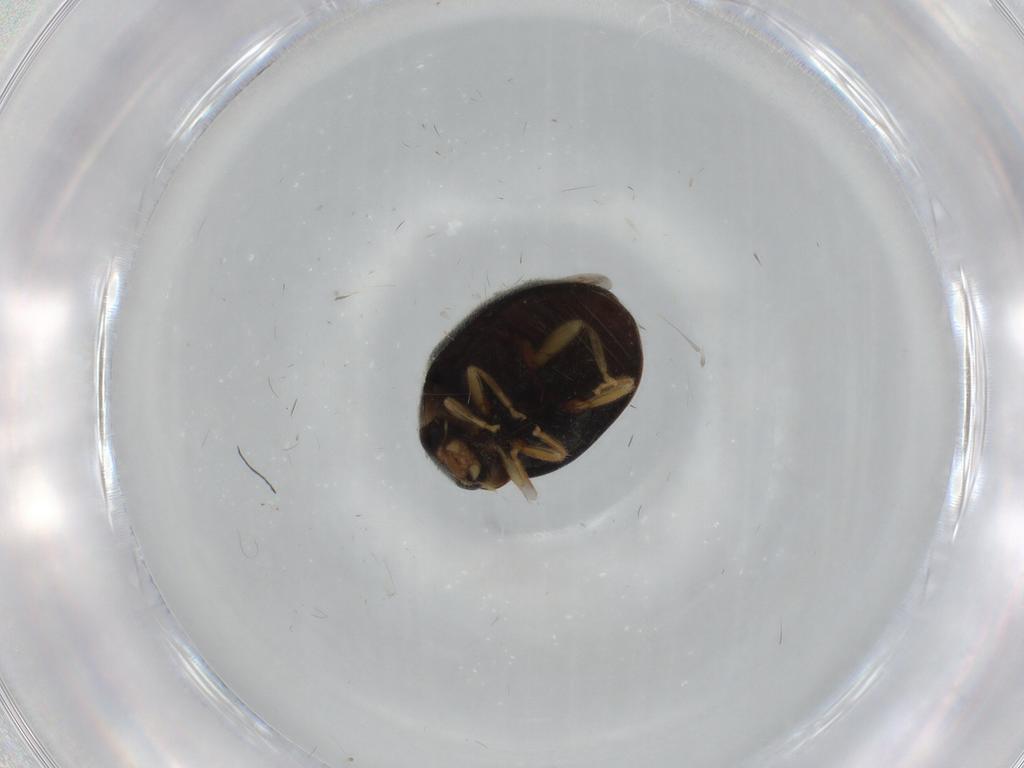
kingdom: Animalia
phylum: Arthropoda
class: Insecta
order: Coleoptera
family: Coccinellidae
